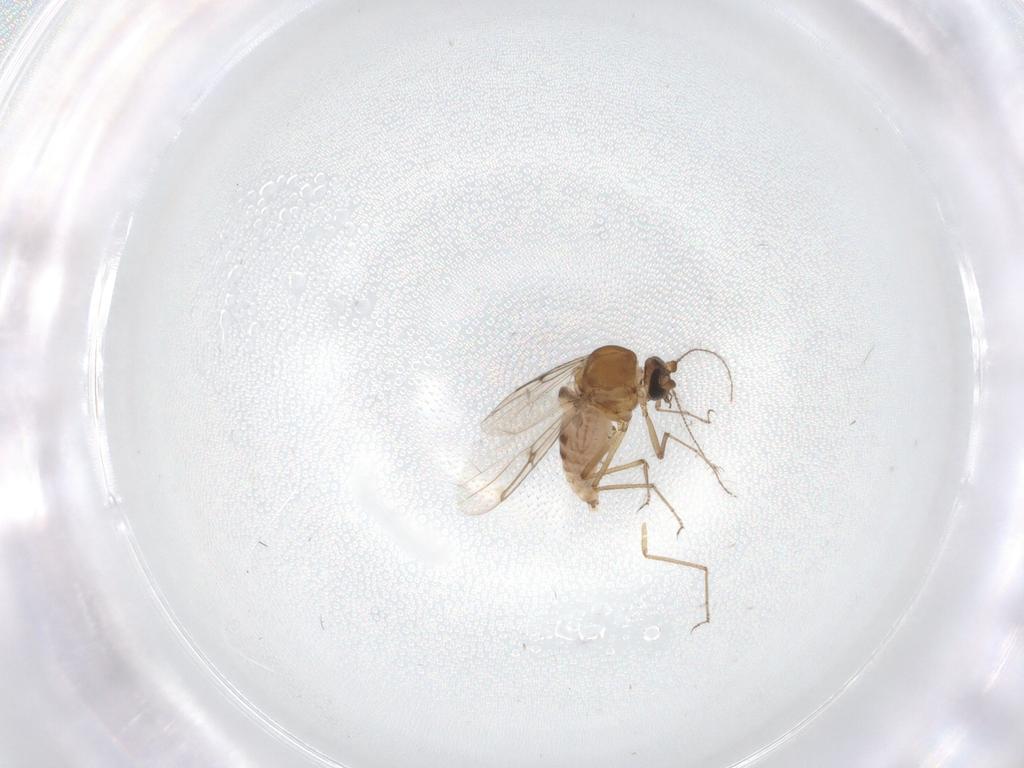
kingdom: Animalia
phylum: Arthropoda
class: Insecta
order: Diptera
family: Ceratopogonidae
